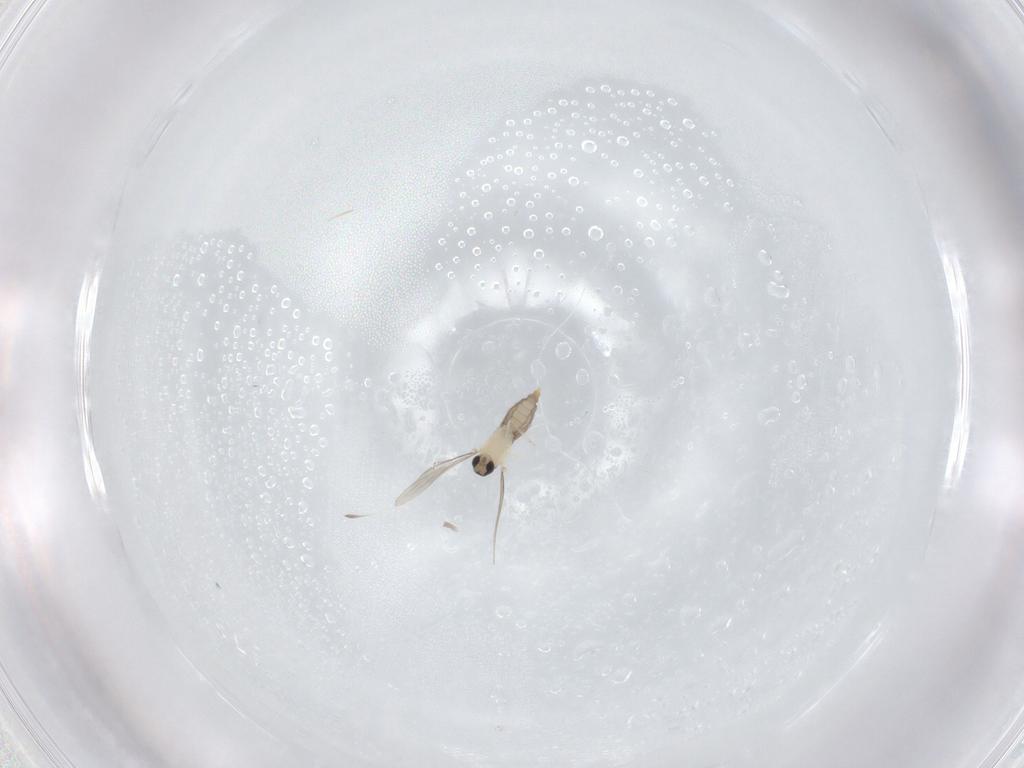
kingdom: Animalia
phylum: Arthropoda
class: Insecta
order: Diptera
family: Cecidomyiidae
